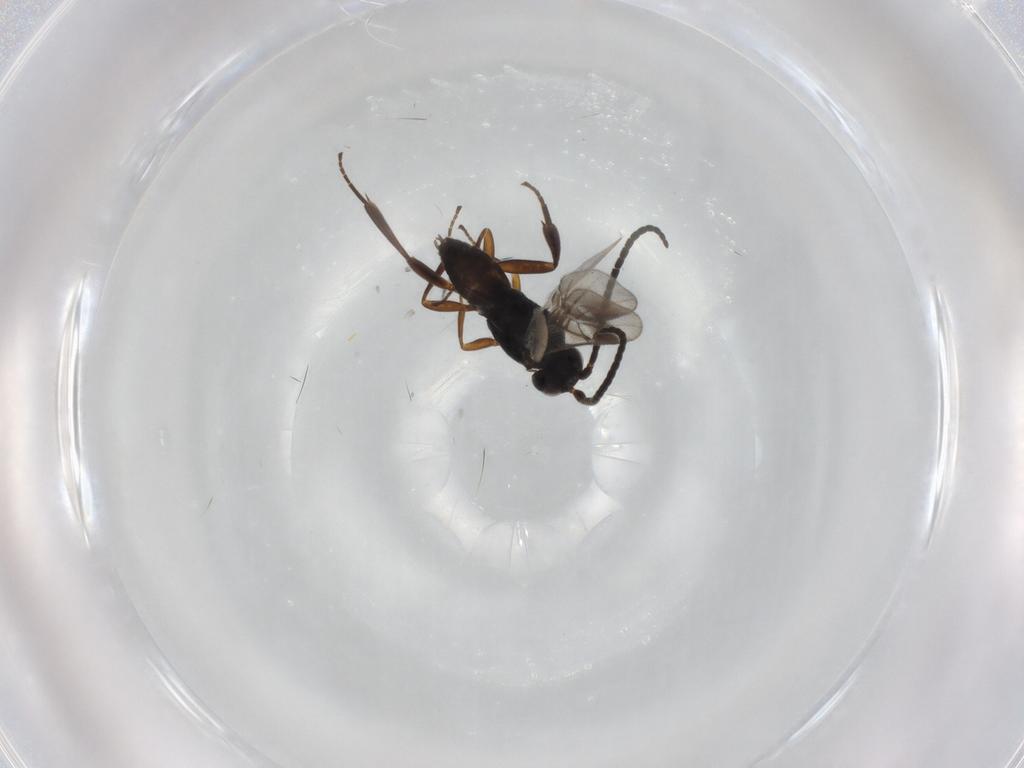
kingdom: Animalia
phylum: Arthropoda
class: Insecta
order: Hymenoptera
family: Braconidae
